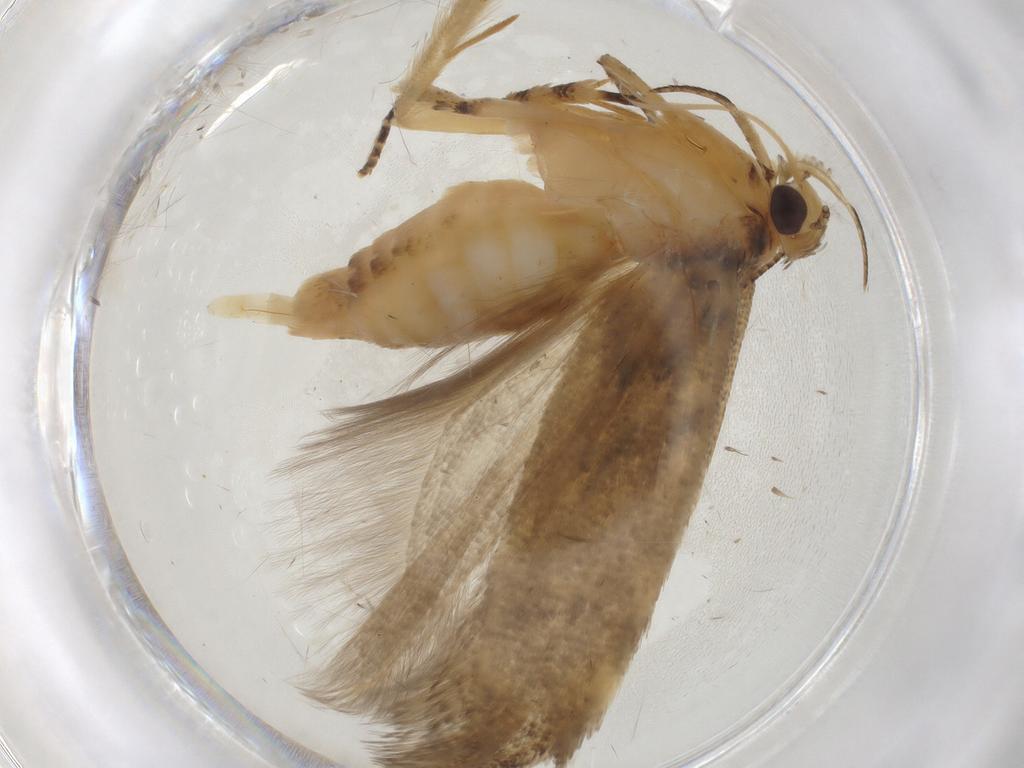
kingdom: Animalia
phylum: Arthropoda
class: Insecta
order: Lepidoptera
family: Gelechiidae
